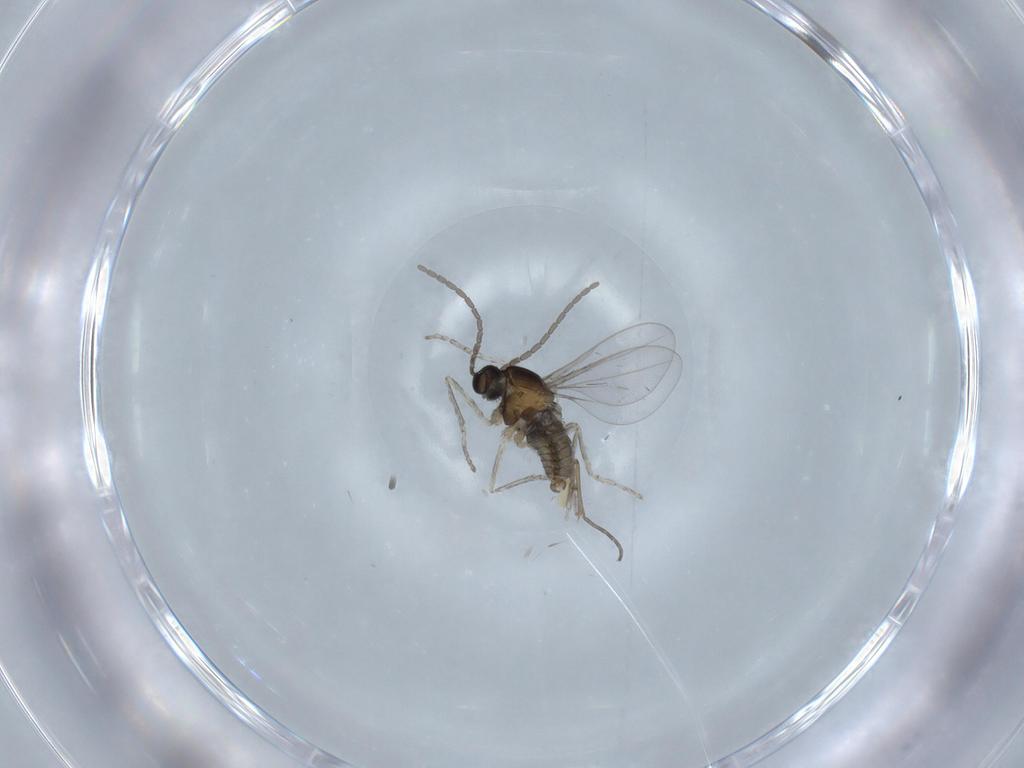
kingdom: Animalia
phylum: Arthropoda
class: Insecta
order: Diptera
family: Cecidomyiidae
